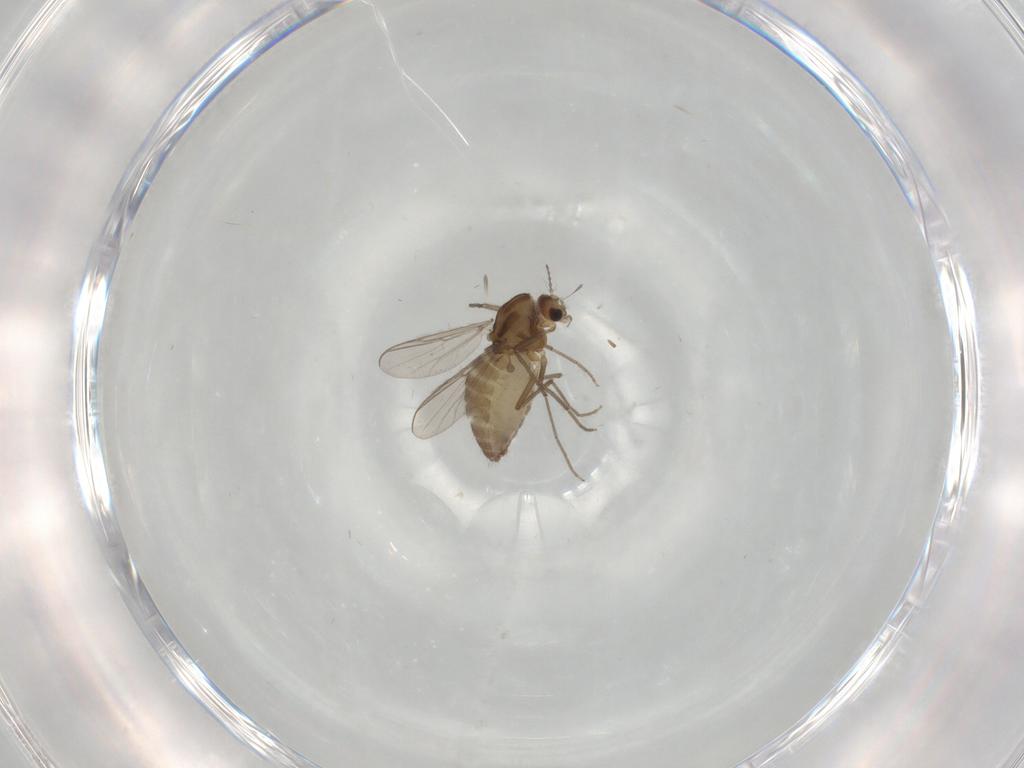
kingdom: Animalia
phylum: Arthropoda
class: Insecta
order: Diptera
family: Chironomidae
